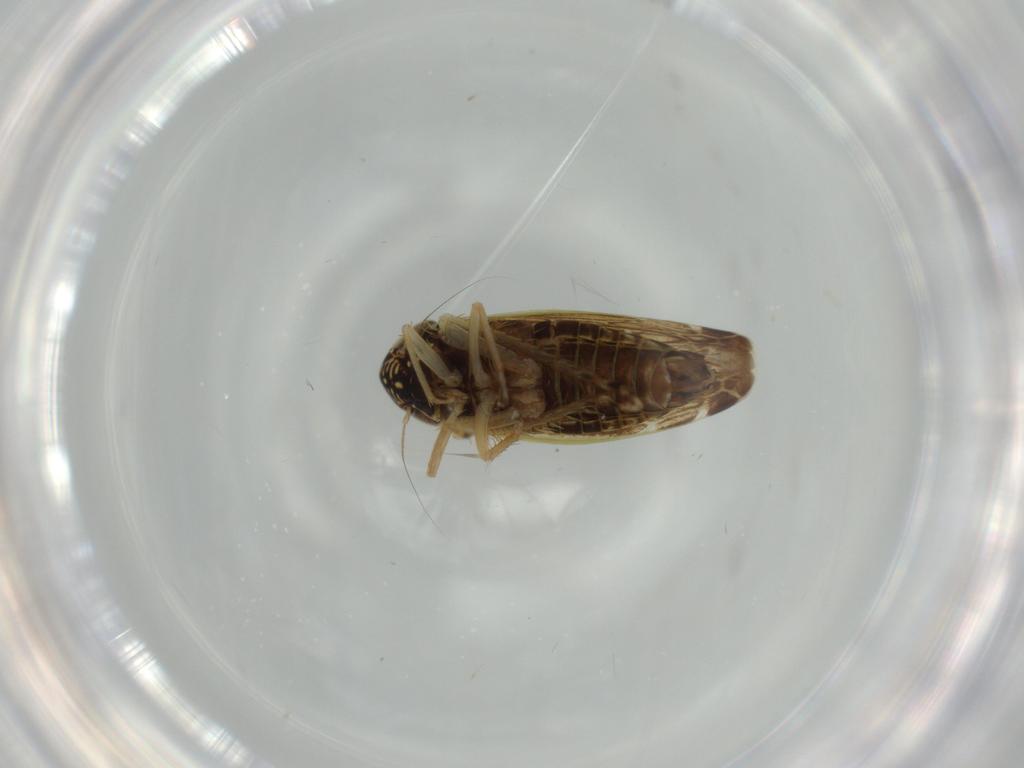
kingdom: Animalia
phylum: Arthropoda
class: Insecta
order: Hemiptera
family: Cicadellidae
